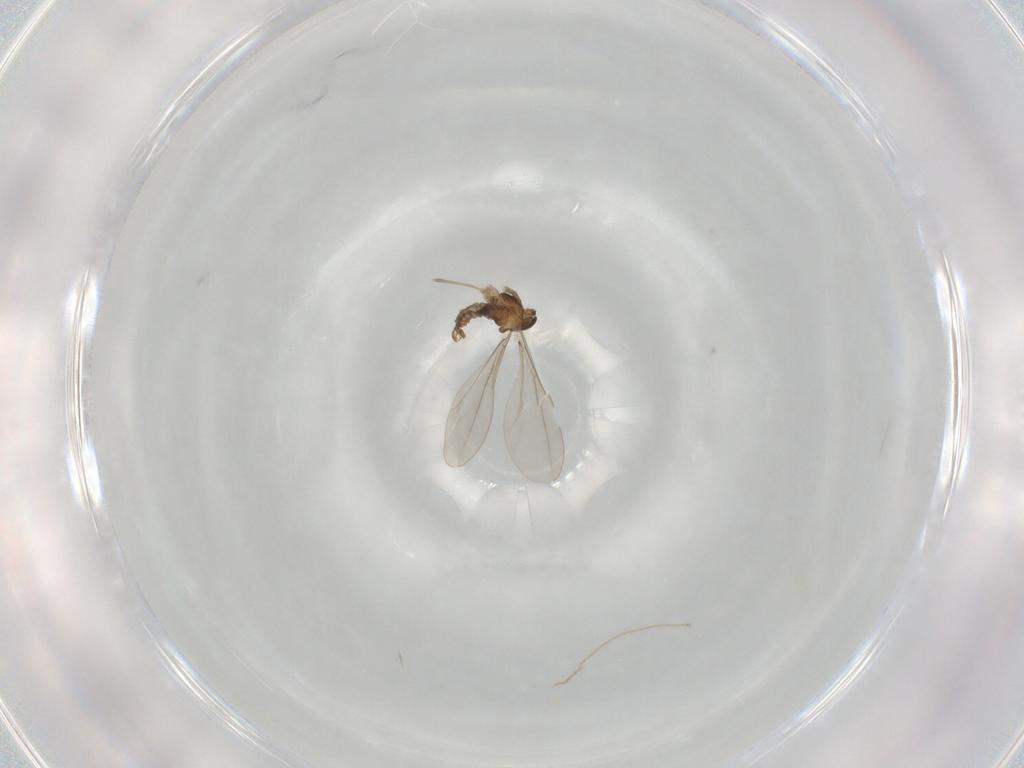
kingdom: Animalia
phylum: Arthropoda
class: Insecta
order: Diptera
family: Cecidomyiidae
